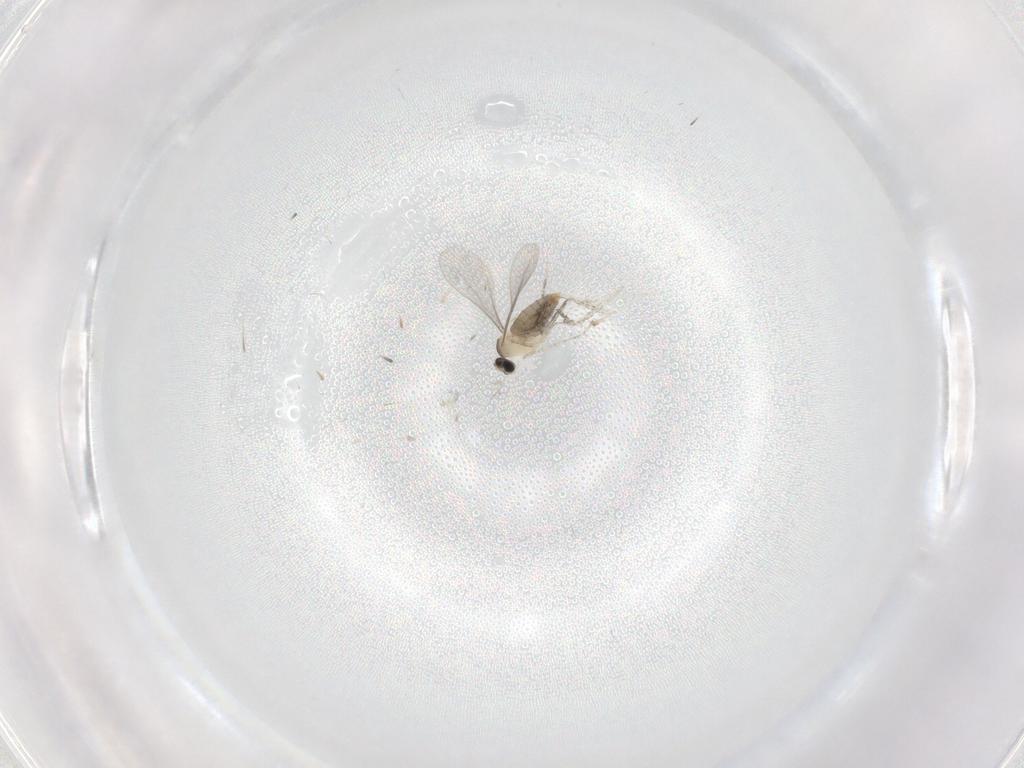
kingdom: Animalia
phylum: Arthropoda
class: Insecta
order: Diptera
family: Cecidomyiidae
